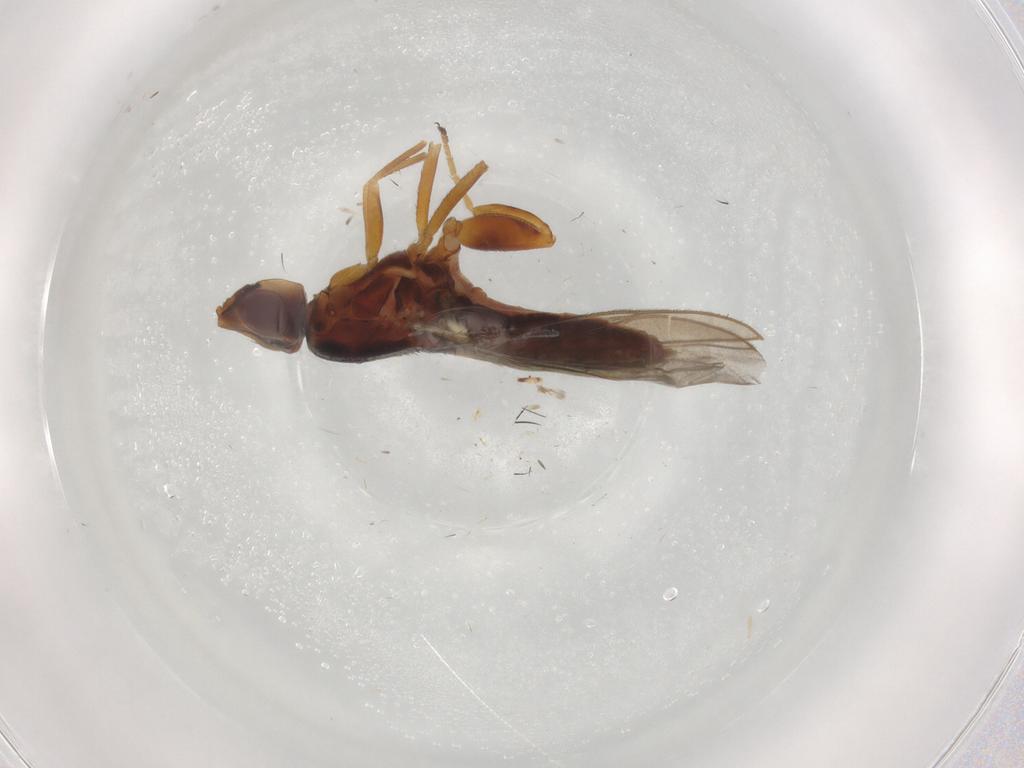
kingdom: Animalia
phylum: Arthropoda
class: Insecta
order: Diptera
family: Chloropidae
